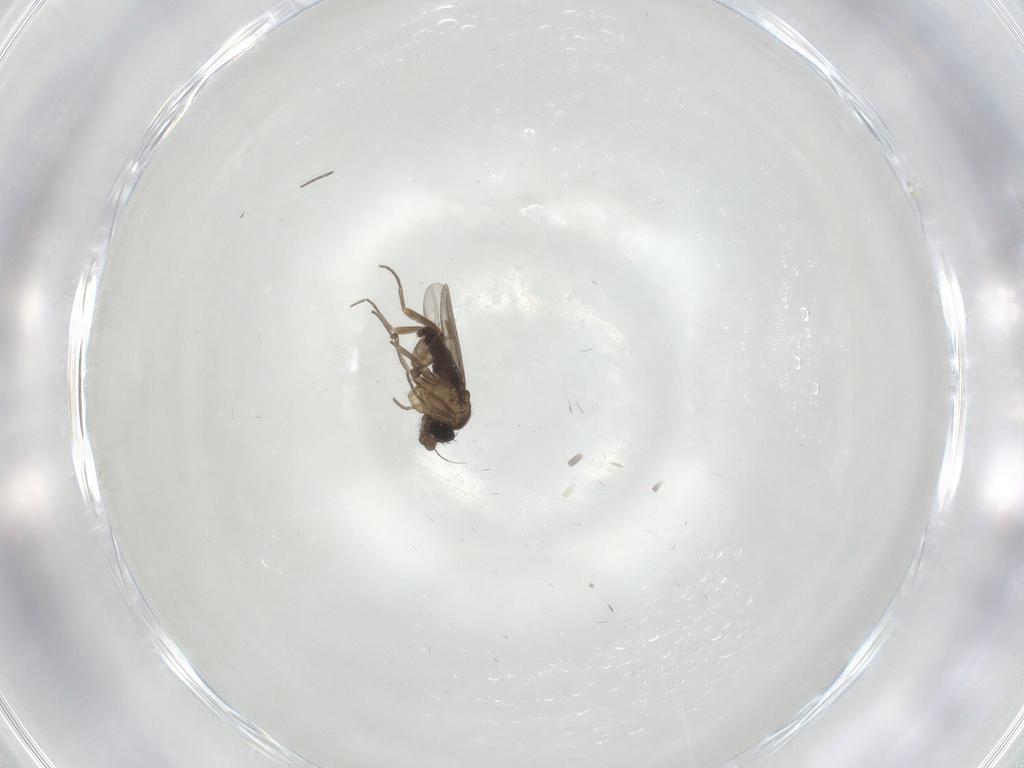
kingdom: Animalia
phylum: Arthropoda
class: Insecta
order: Diptera
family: Phoridae
